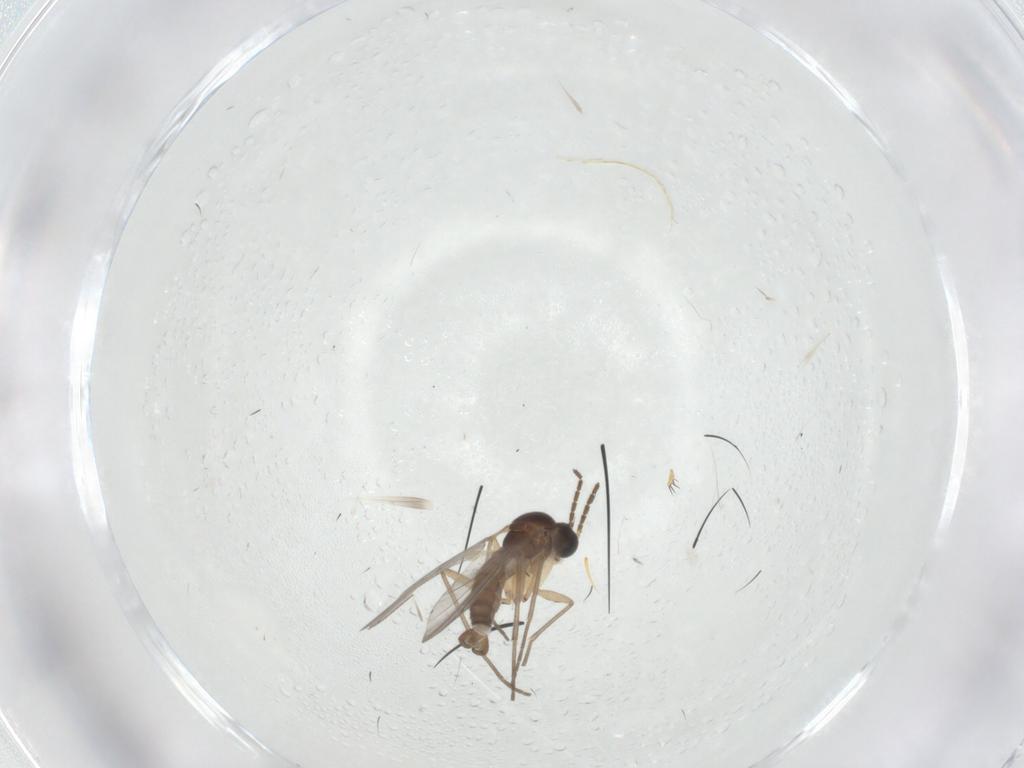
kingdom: Animalia
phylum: Arthropoda
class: Insecta
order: Diptera
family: Sciaridae
